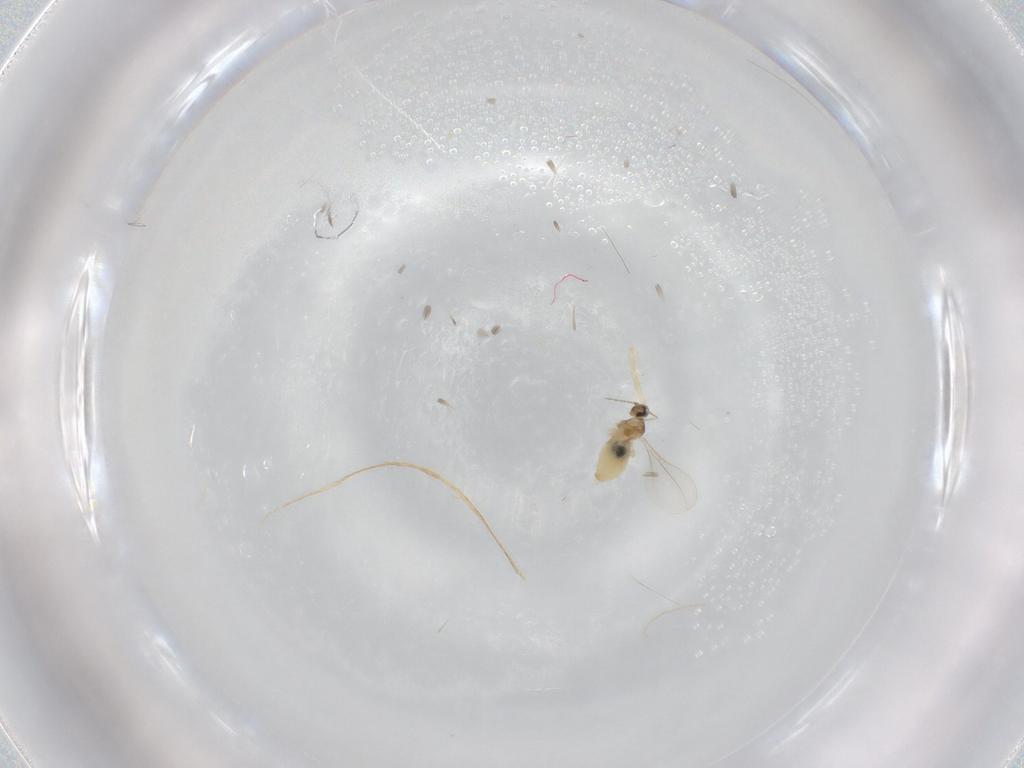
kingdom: Animalia
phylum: Arthropoda
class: Insecta
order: Diptera
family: Cecidomyiidae
